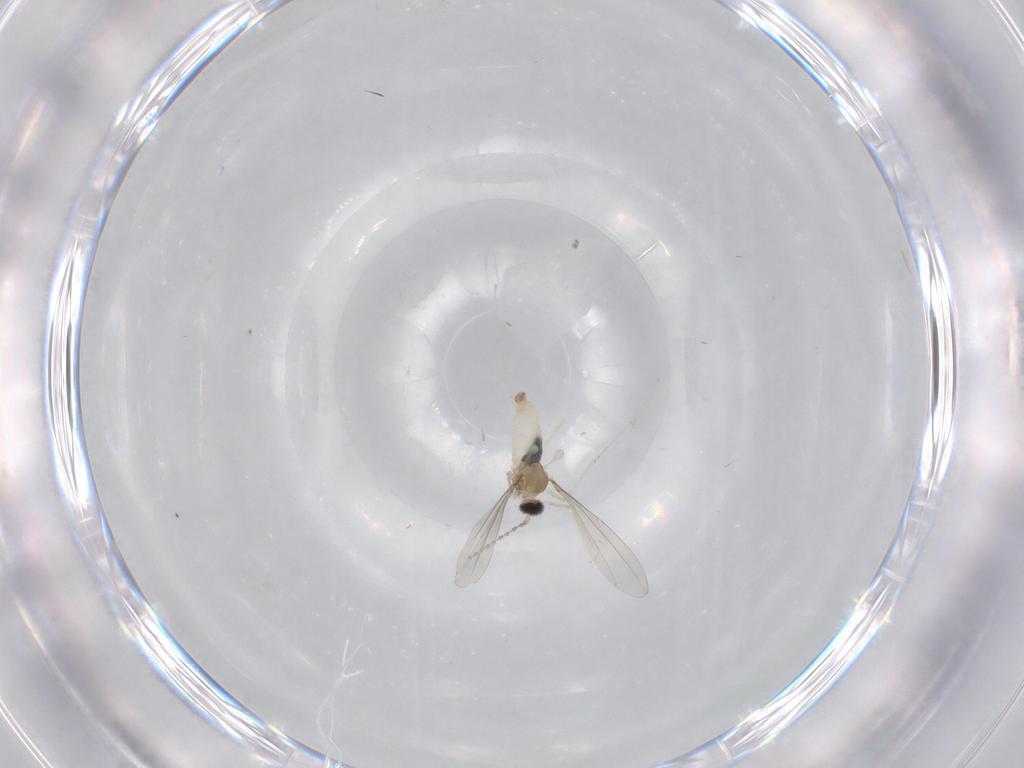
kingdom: Animalia
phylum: Arthropoda
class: Insecta
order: Diptera
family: Cecidomyiidae
